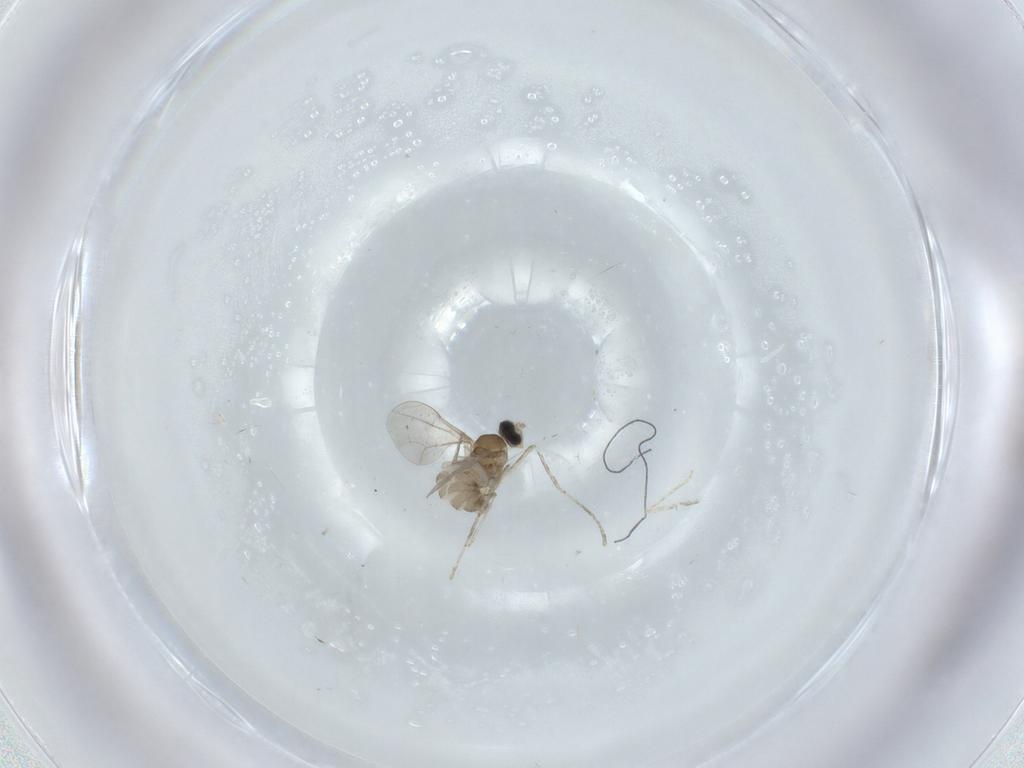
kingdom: Animalia
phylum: Arthropoda
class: Insecta
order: Diptera
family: Cecidomyiidae
